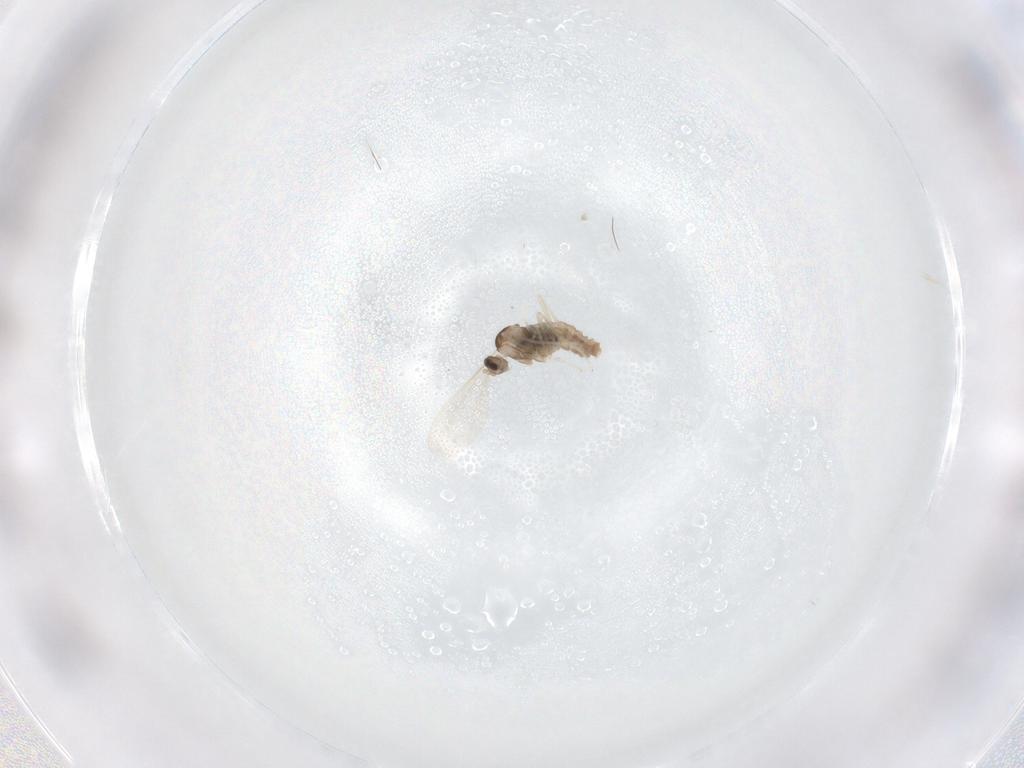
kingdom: Animalia
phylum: Arthropoda
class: Insecta
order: Diptera
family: Cecidomyiidae
